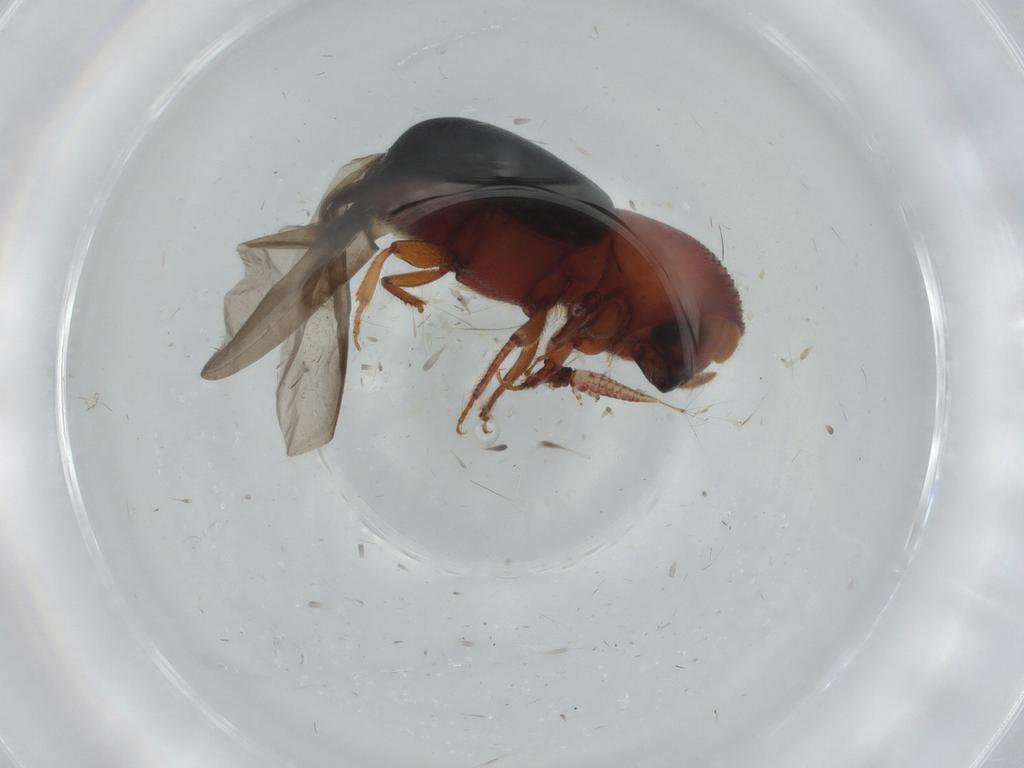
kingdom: Animalia
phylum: Arthropoda
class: Insecta
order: Coleoptera
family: Curculionidae
